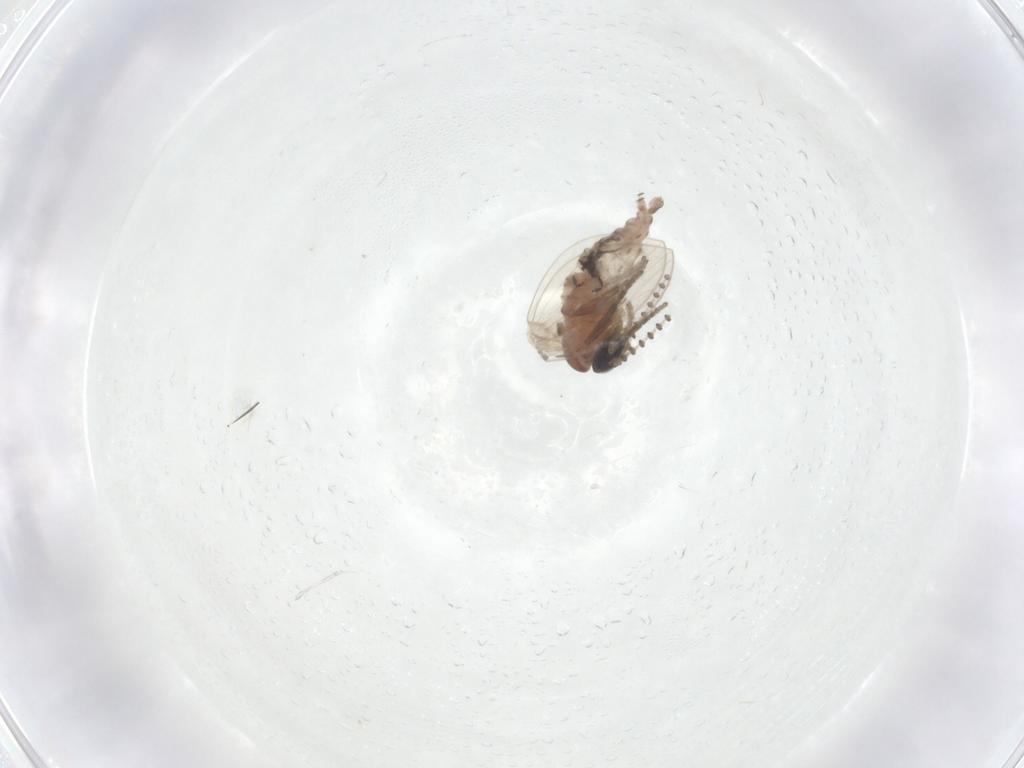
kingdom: Animalia
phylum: Arthropoda
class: Insecta
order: Diptera
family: Psychodidae
